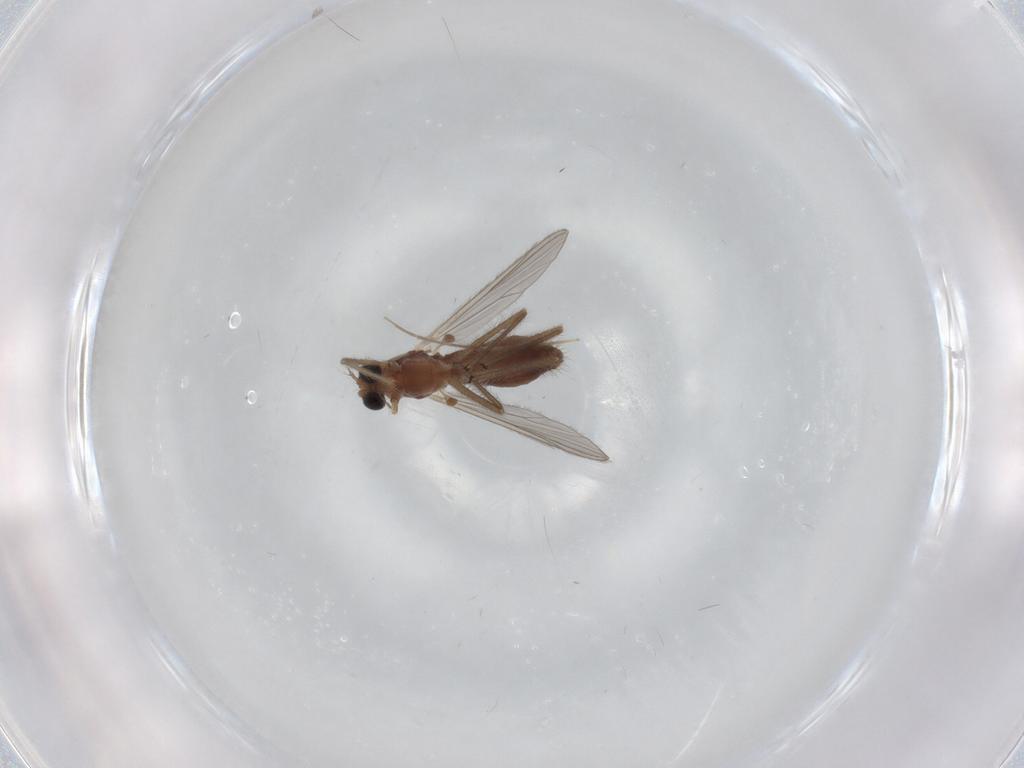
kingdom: Animalia
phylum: Arthropoda
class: Insecta
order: Diptera
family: Chironomidae
